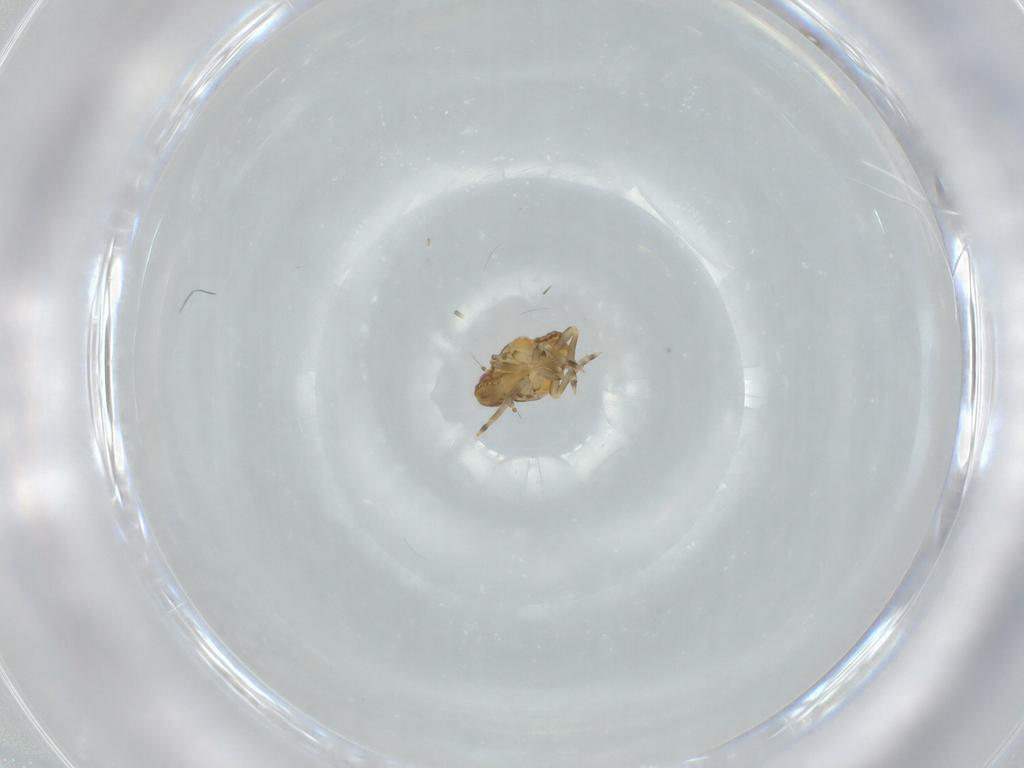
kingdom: Animalia
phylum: Arthropoda
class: Insecta
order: Hemiptera
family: Flatidae
